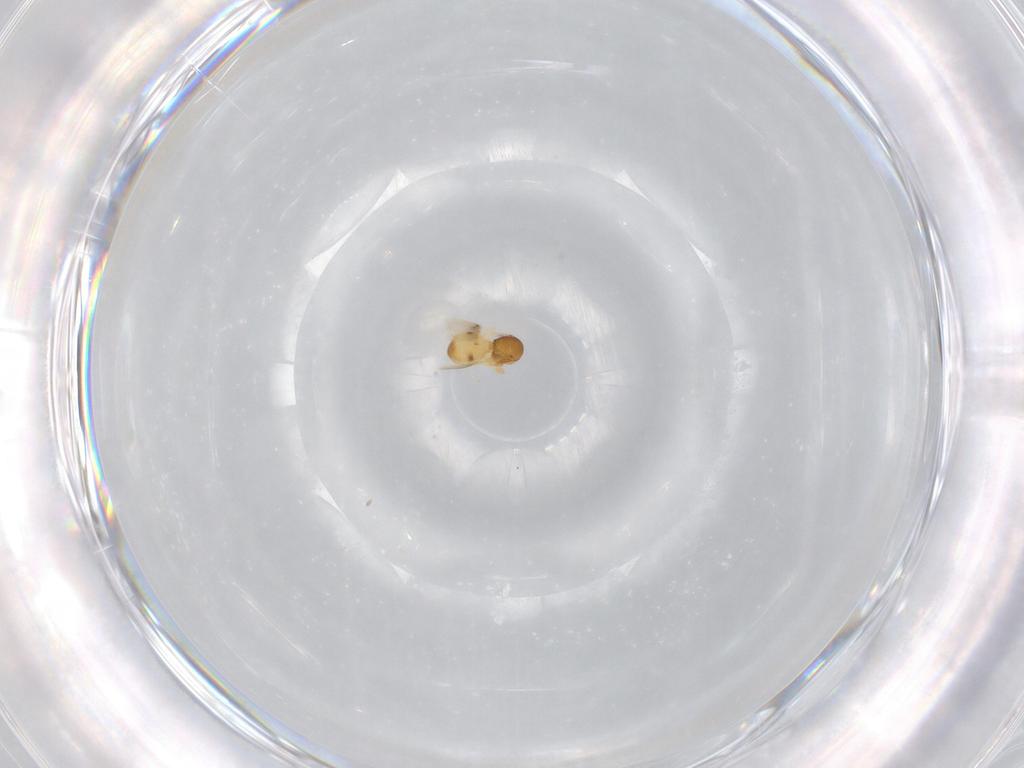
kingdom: Animalia
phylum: Arthropoda
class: Insecta
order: Hymenoptera
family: Scelionidae
